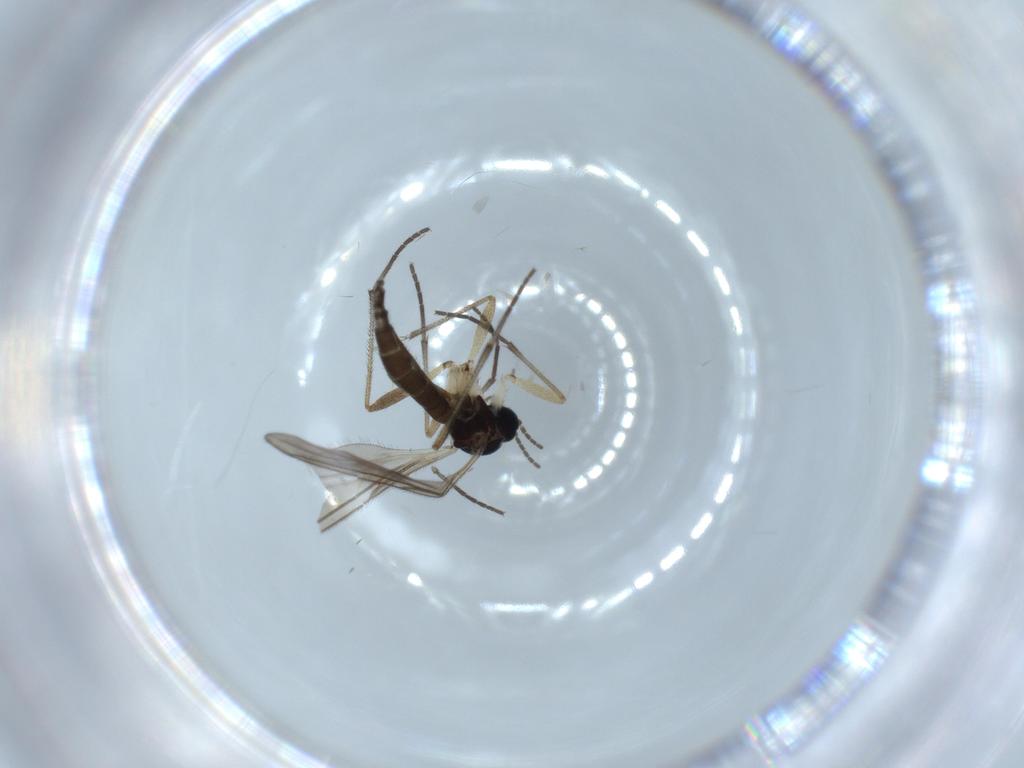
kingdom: Animalia
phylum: Arthropoda
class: Insecta
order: Diptera
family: Sciaridae
